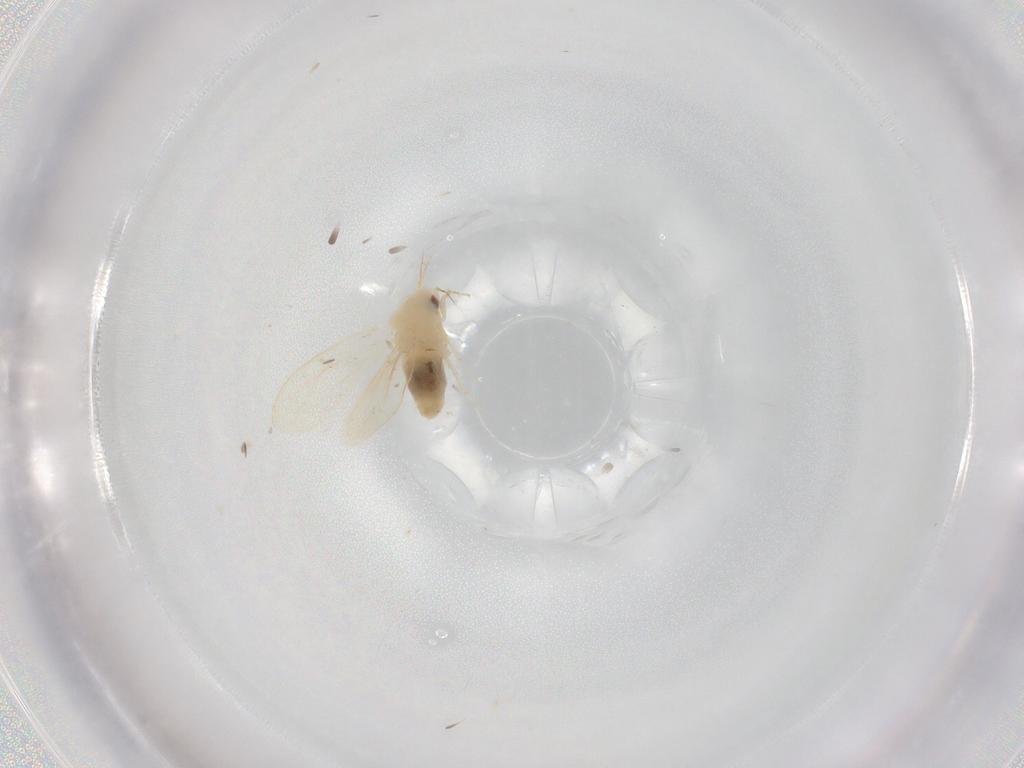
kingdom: Animalia
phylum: Arthropoda
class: Insecta
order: Hemiptera
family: Aleyrodidae
